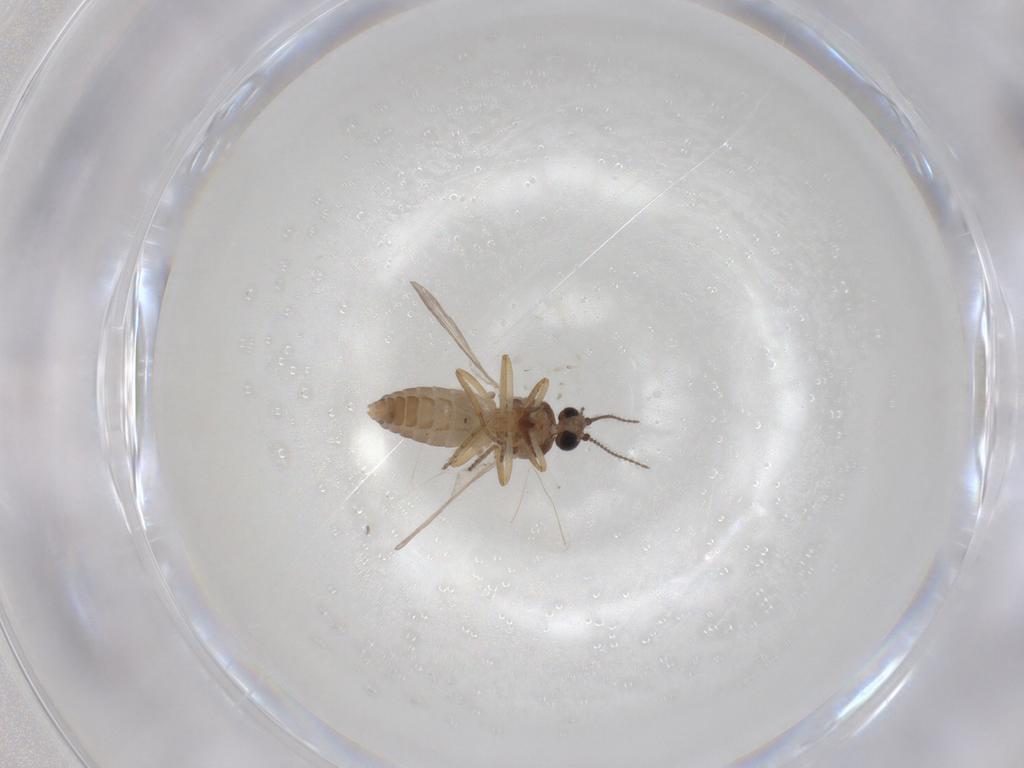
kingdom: Animalia
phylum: Arthropoda
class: Insecta
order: Diptera
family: Ceratopogonidae
